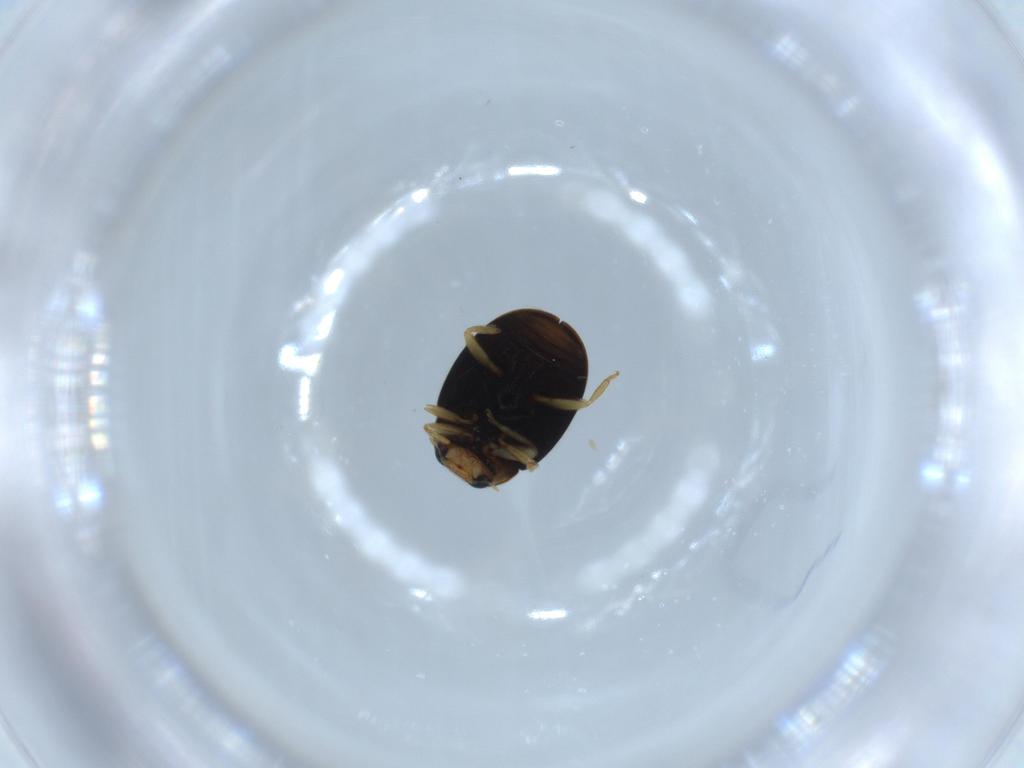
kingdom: Animalia
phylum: Arthropoda
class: Insecta
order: Coleoptera
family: Coccinellidae
